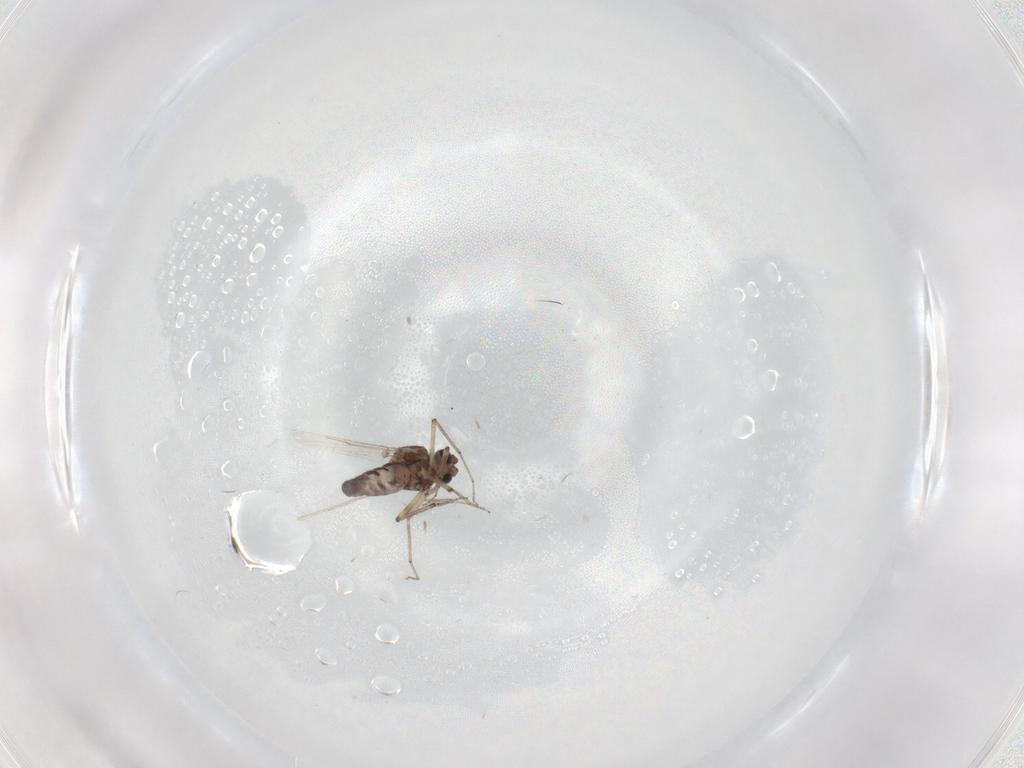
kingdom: Animalia
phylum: Arthropoda
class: Insecta
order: Diptera
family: Ceratopogonidae
